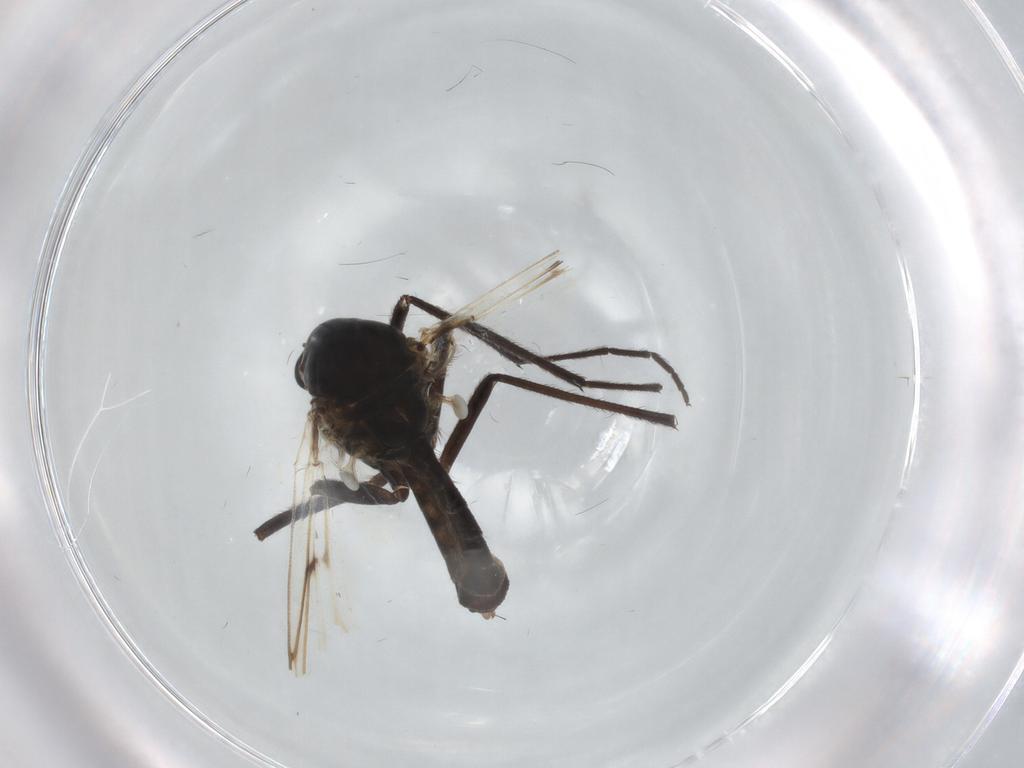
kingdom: Animalia
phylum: Arthropoda
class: Insecta
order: Diptera
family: Chironomidae
